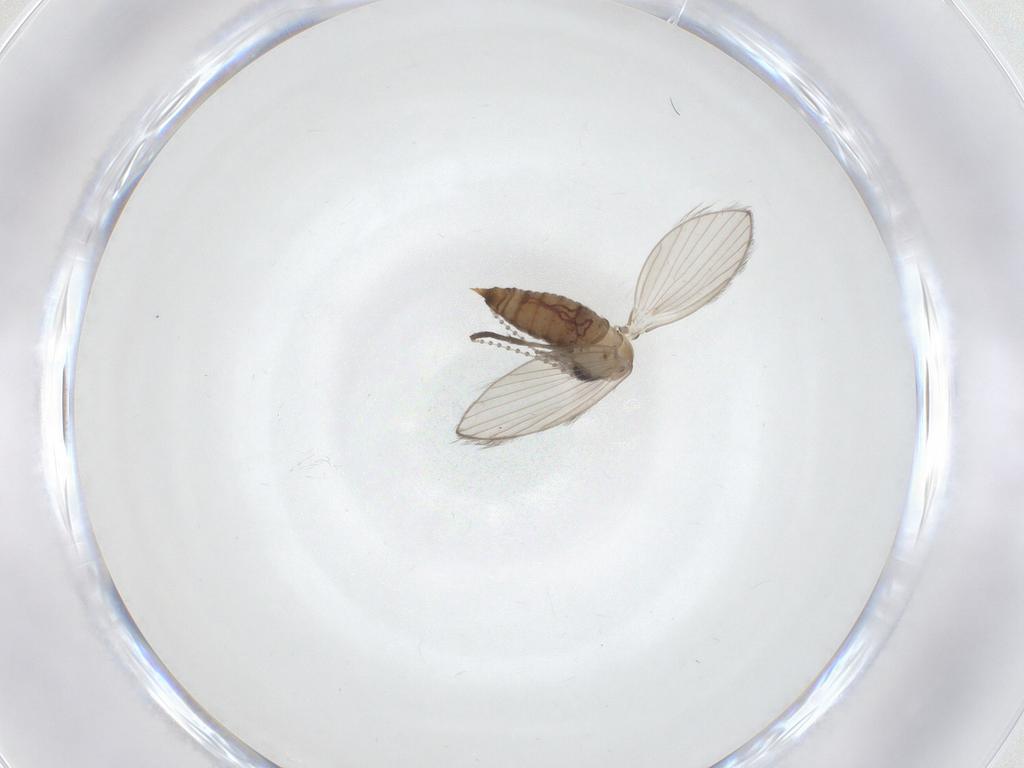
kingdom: Animalia
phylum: Arthropoda
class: Insecta
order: Diptera
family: Psychodidae
